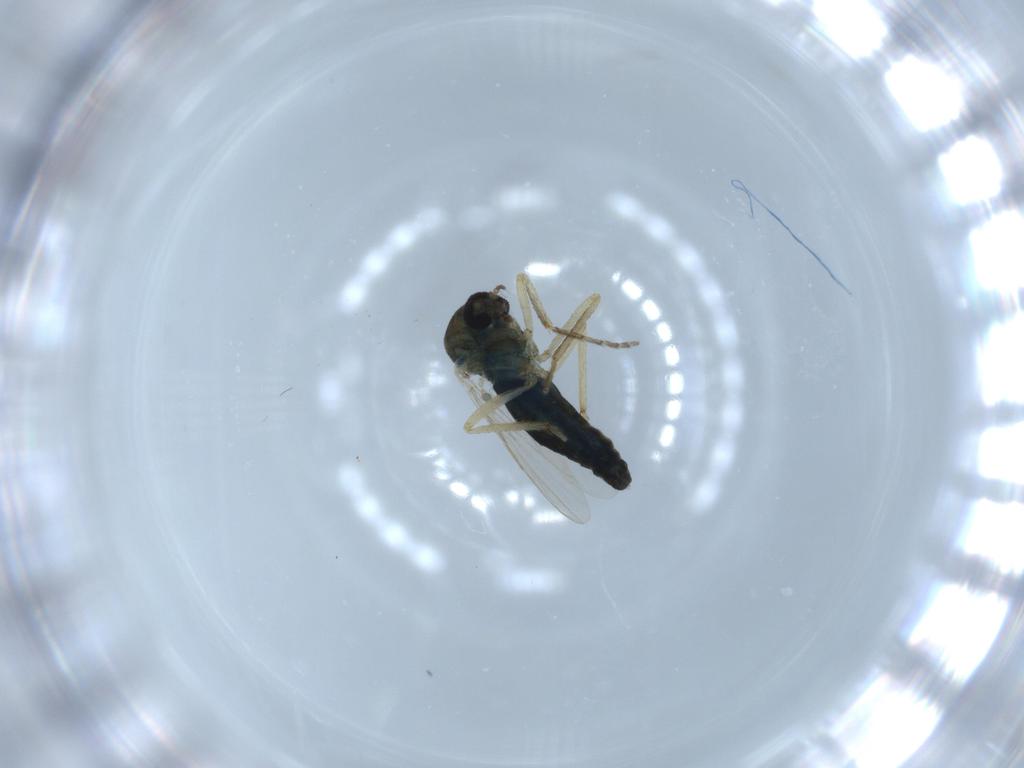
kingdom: Animalia
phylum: Arthropoda
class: Insecta
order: Diptera
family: Ceratopogonidae
